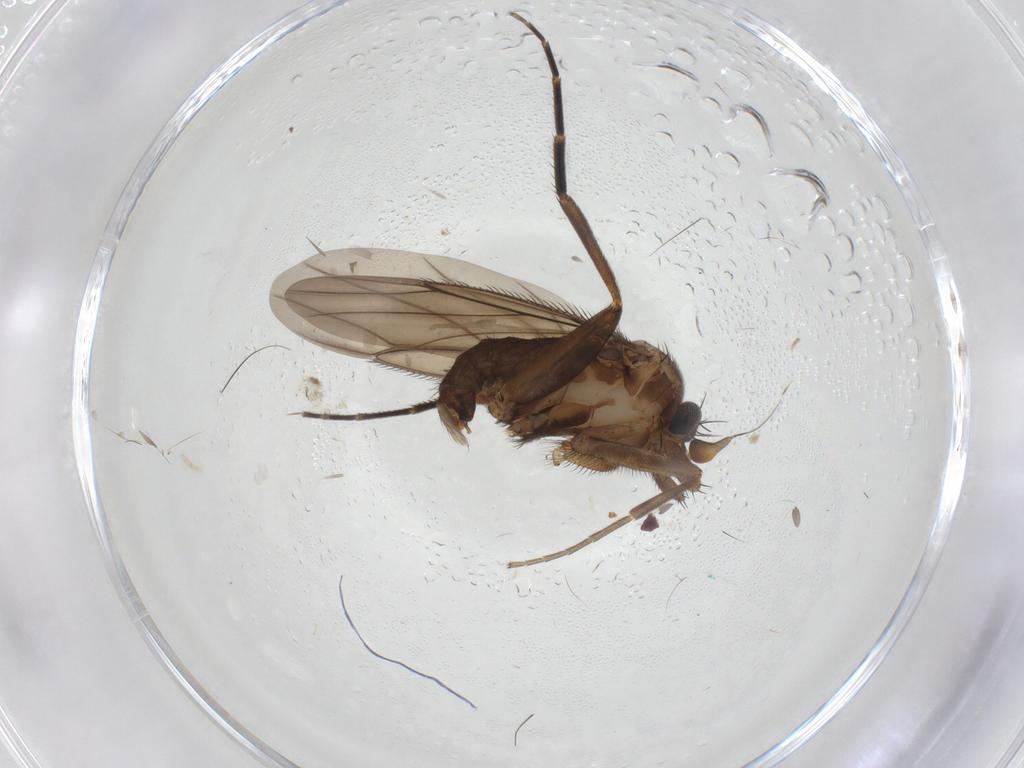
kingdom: Animalia
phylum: Arthropoda
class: Insecta
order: Diptera
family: Phoridae
